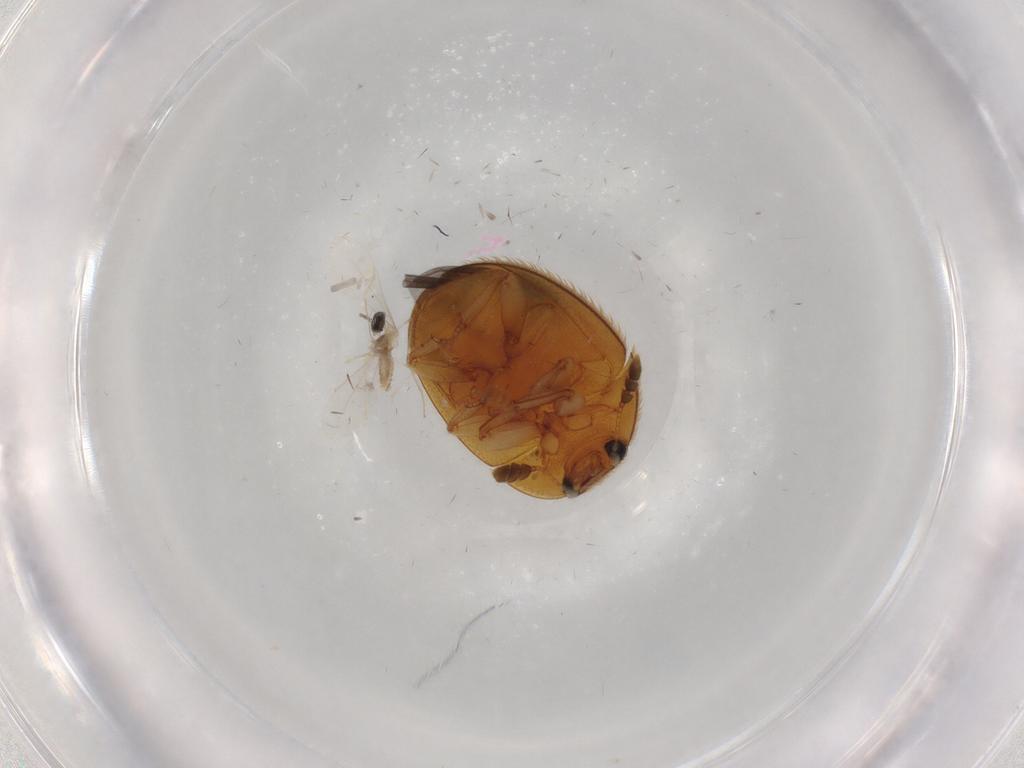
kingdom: Animalia
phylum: Arthropoda
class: Insecta
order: Diptera
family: Cecidomyiidae
